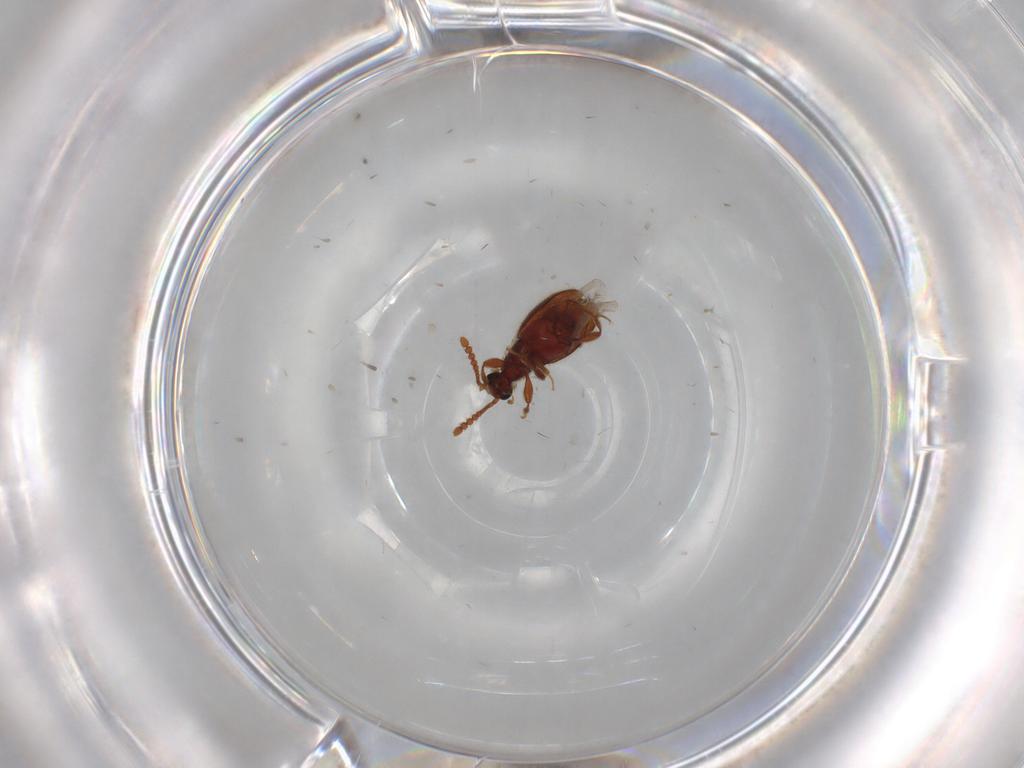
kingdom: Animalia
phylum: Arthropoda
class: Insecta
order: Coleoptera
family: Staphylinidae
